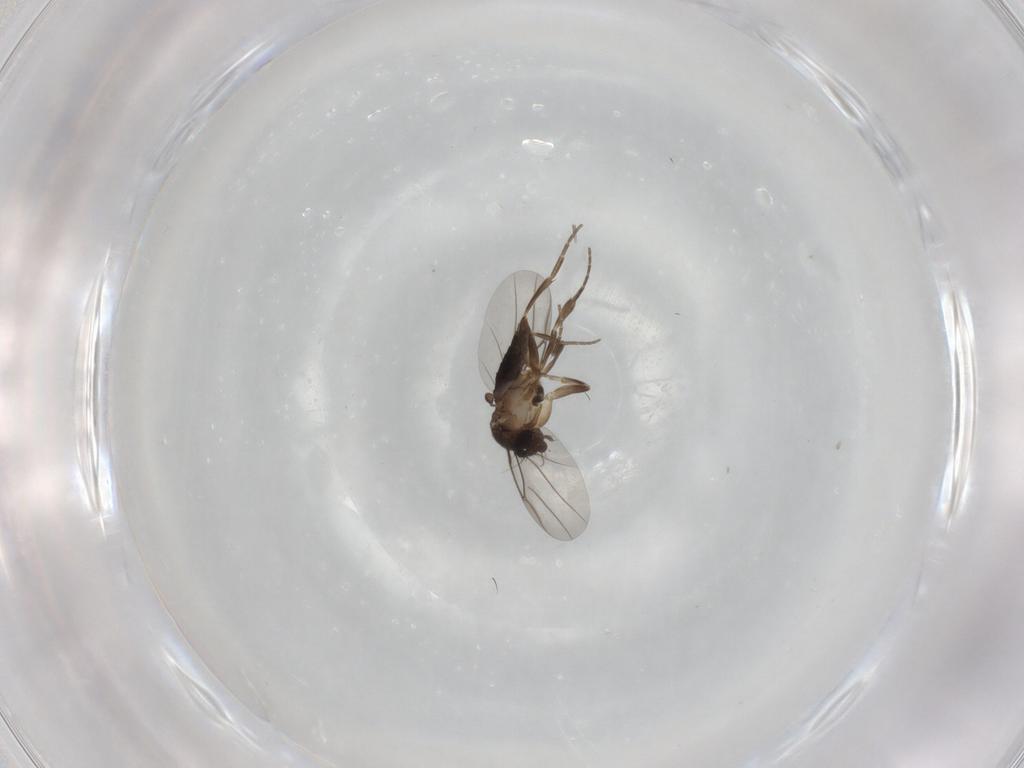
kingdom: Animalia
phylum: Arthropoda
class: Insecta
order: Diptera
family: Phoridae
